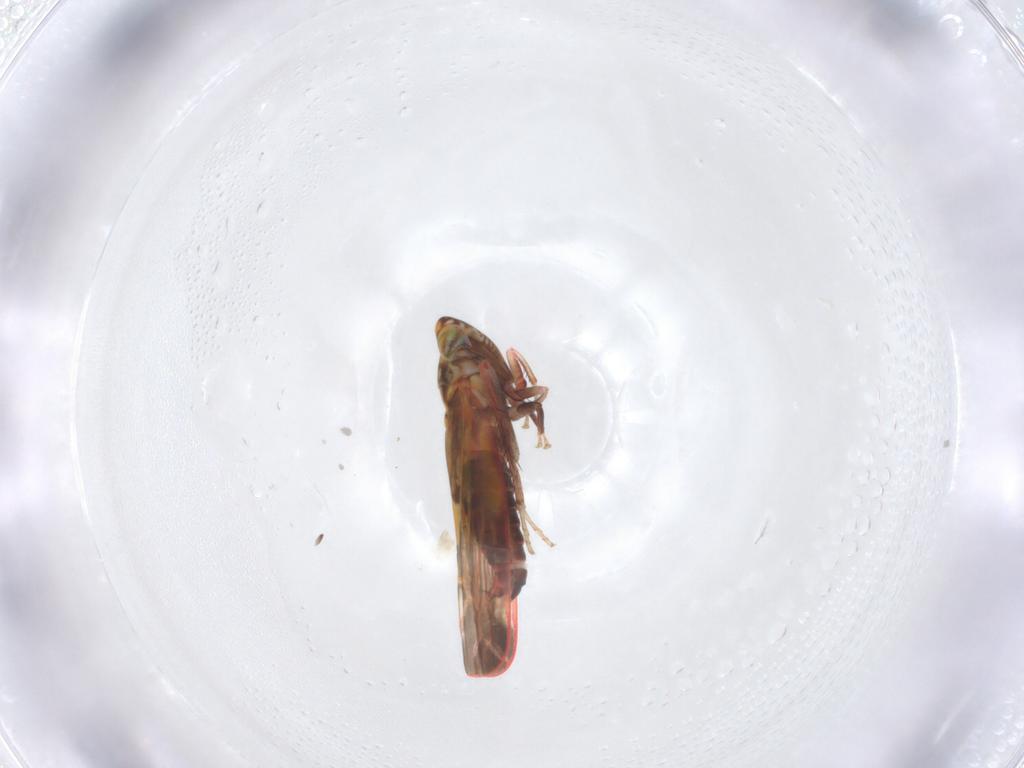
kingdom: Animalia
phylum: Arthropoda
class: Insecta
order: Hemiptera
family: Cicadellidae
